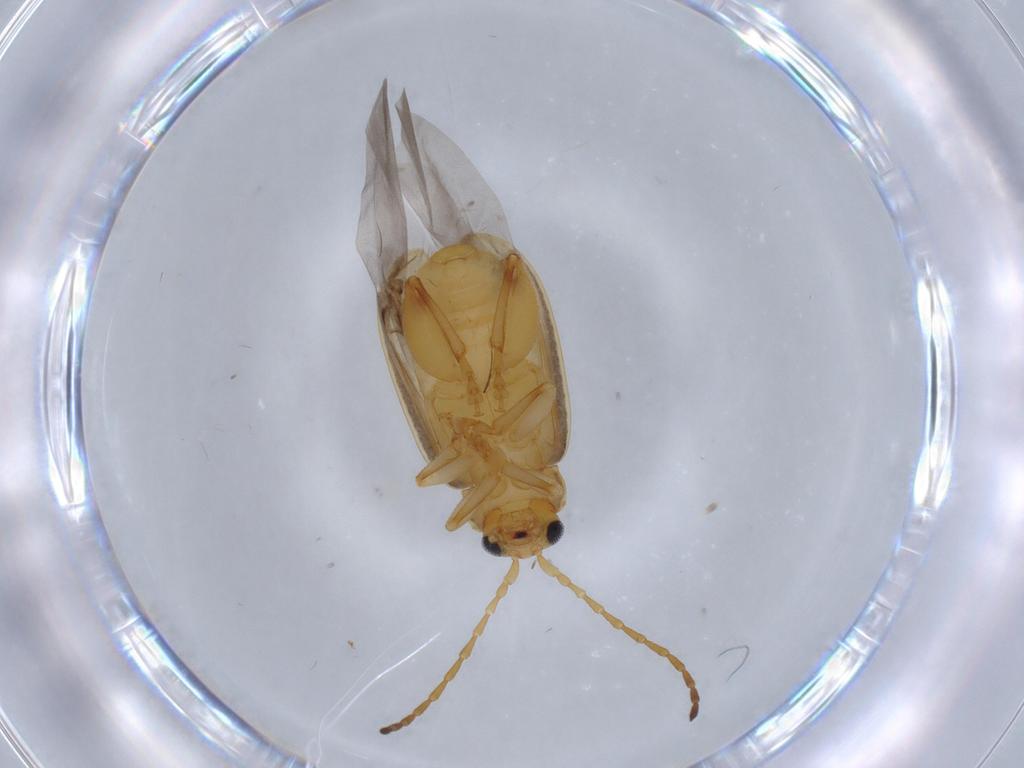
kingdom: Animalia
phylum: Arthropoda
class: Insecta
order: Coleoptera
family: Chrysomelidae
